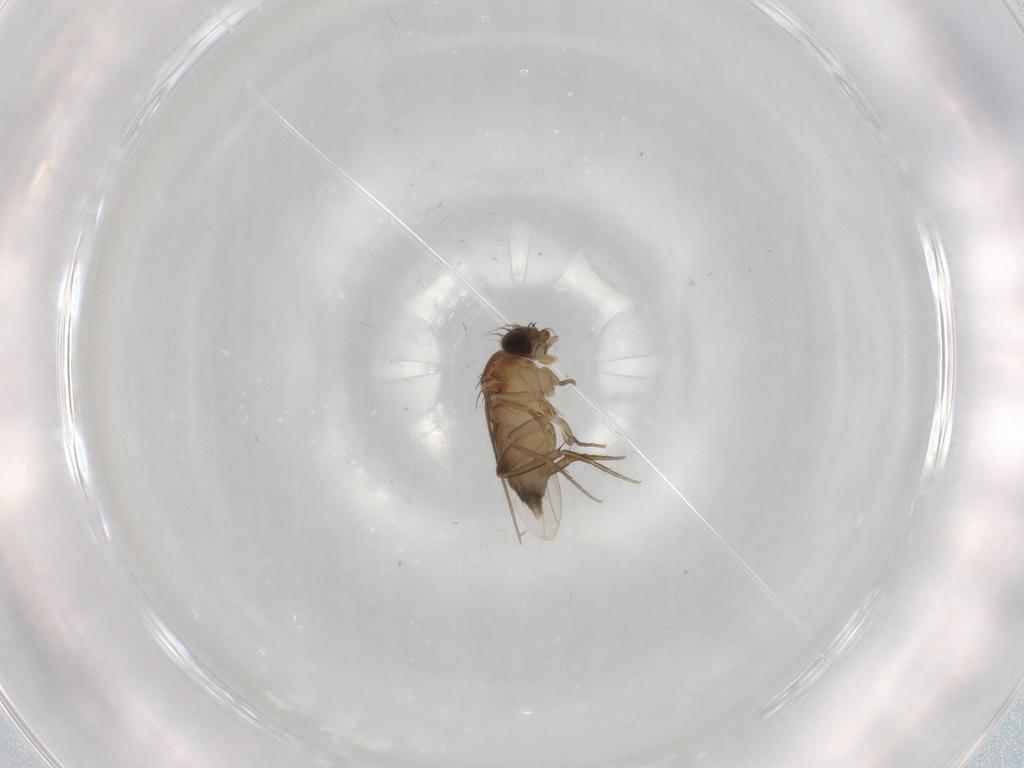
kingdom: Animalia
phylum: Arthropoda
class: Insecta
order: Diptera
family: Phoridae
